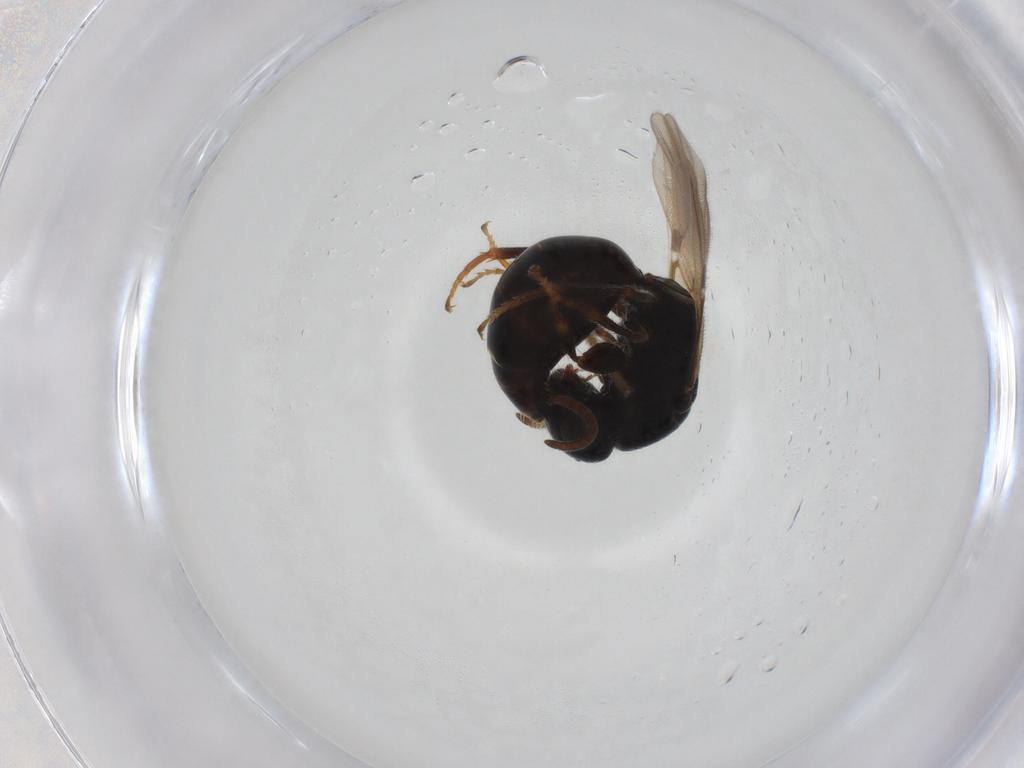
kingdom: Animalia
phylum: Arthropoda
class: Insecta
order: Hymenoptera
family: Bethylidae
